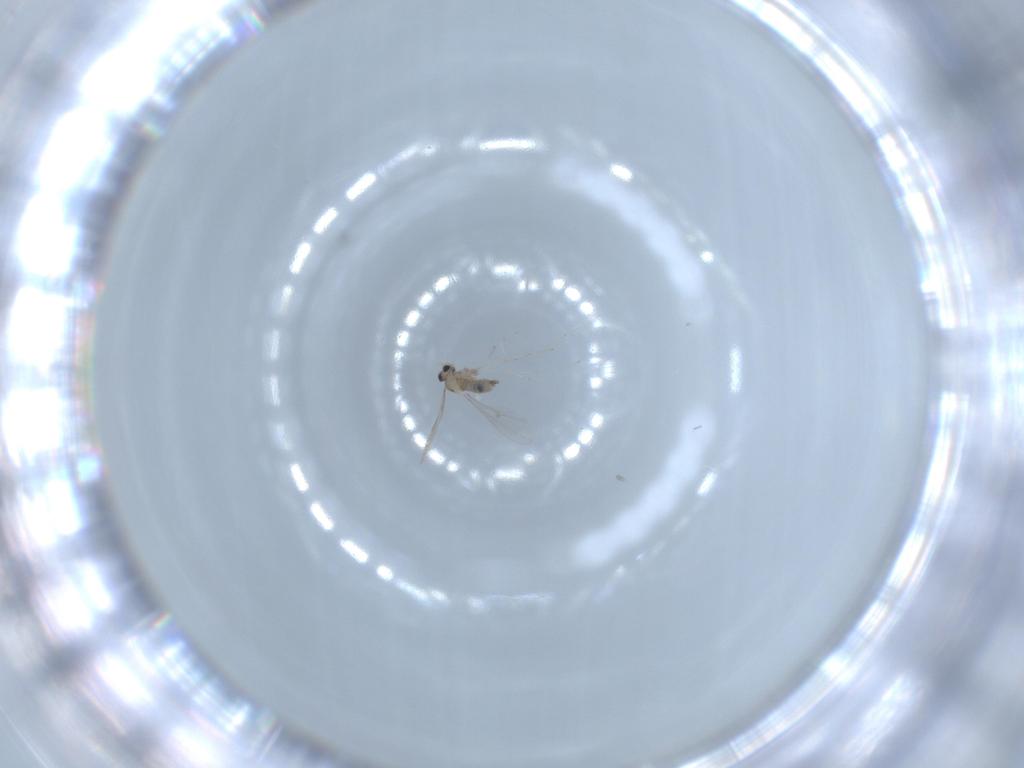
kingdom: Animalia
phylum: Arthropoda
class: Insecta
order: Diptera
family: Cecidomyiidae
